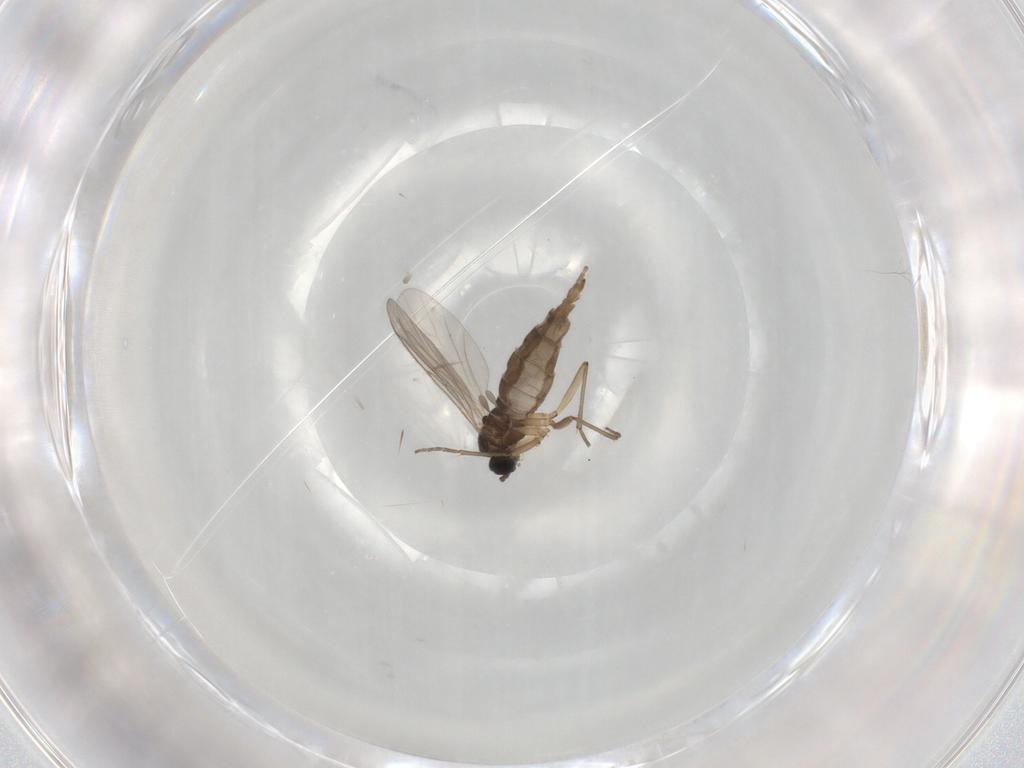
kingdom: Animalia
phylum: Arthropoda
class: Insecta
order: Diptera
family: Sciaridae
